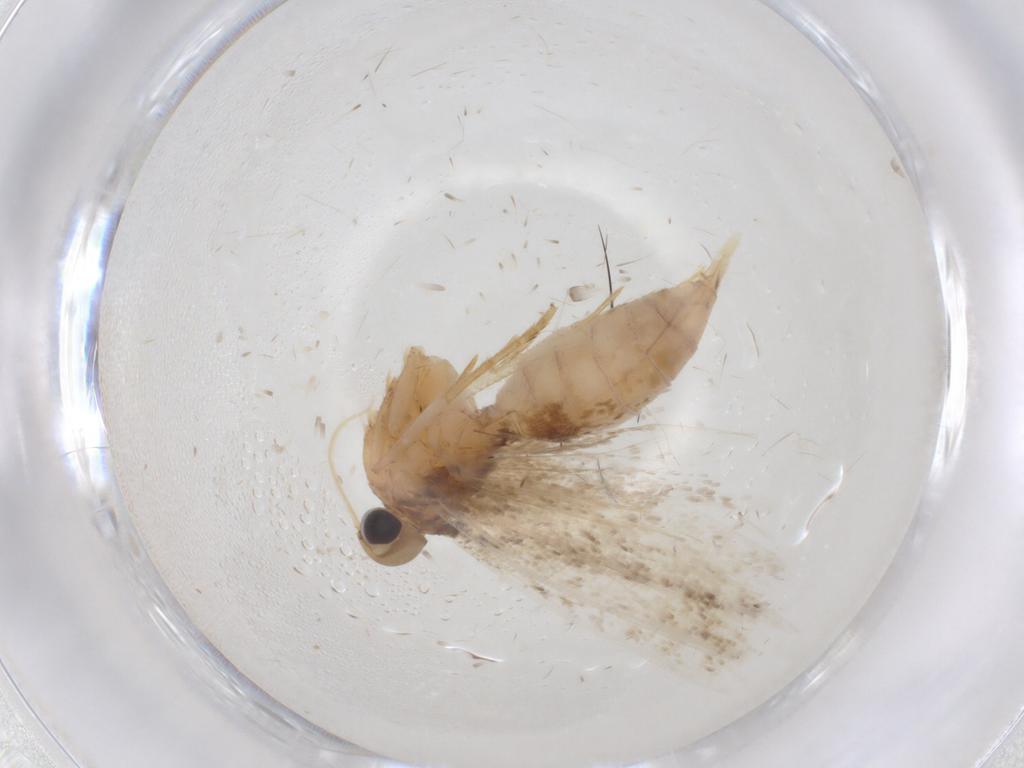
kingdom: Animalia
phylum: Arthropoda
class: Insecta
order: Lepidoptera
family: Gelechiidae
